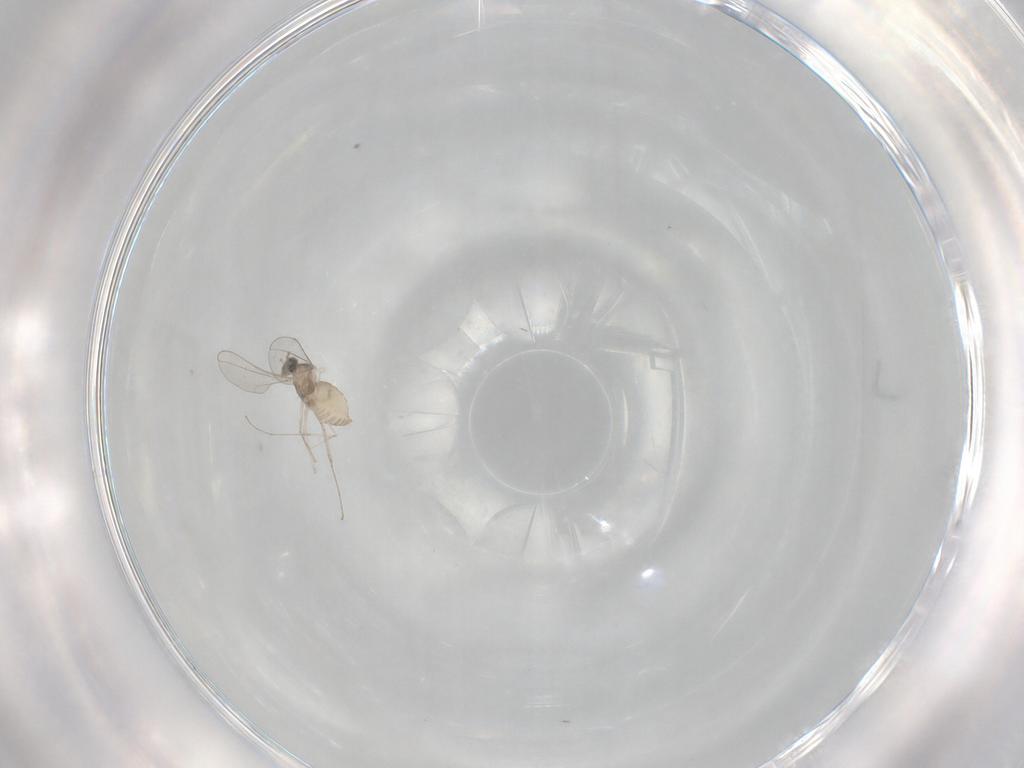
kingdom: Animalia
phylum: Arthropoda
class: Insecta
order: Diptera
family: Cecidomyiidae
